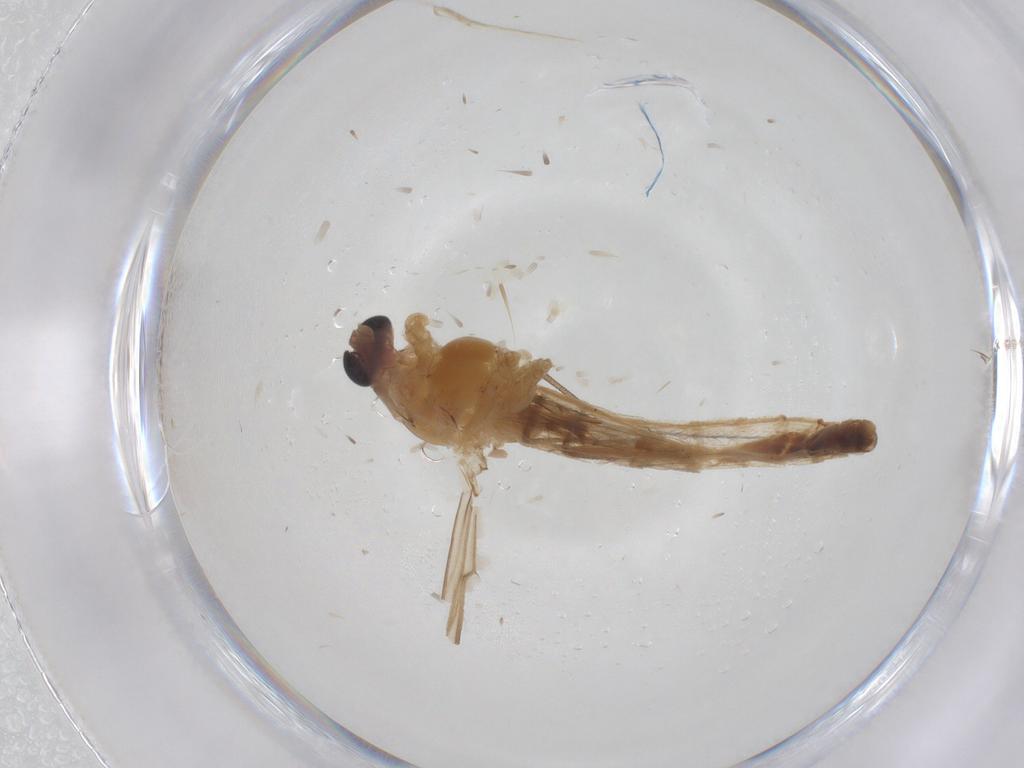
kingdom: Animalia
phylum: Arthropoda
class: Insecta
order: Diptera
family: Chironomidae
